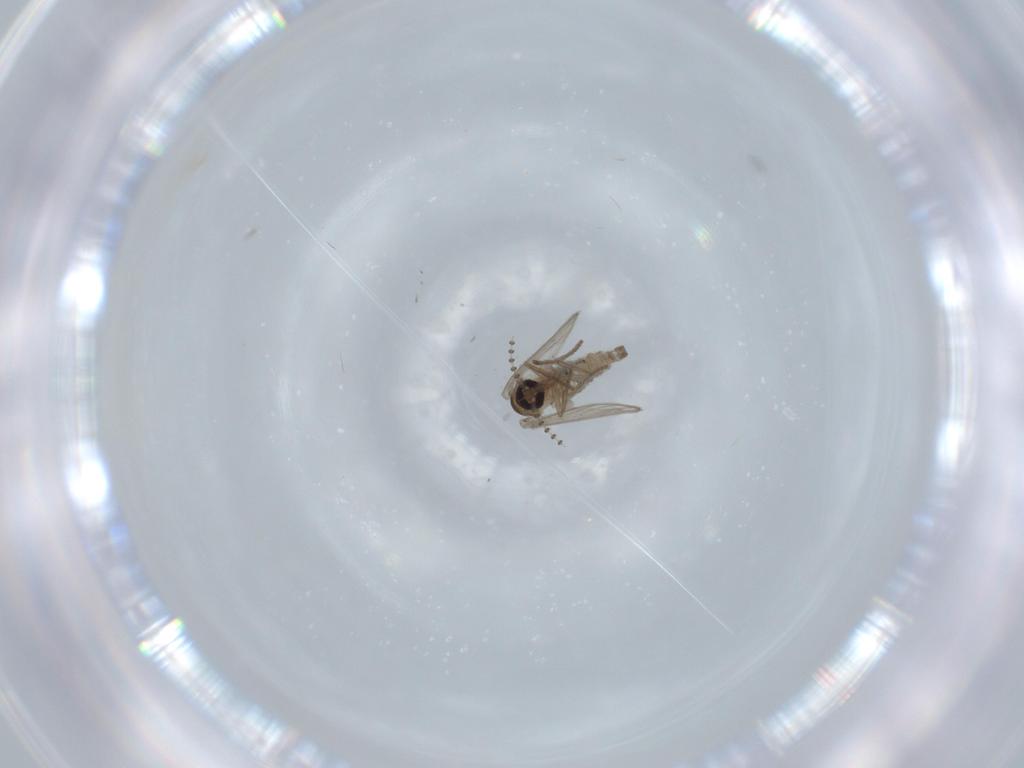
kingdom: Animalia
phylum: Arthropoda
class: Insecta
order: Diptera
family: Psychodidae
